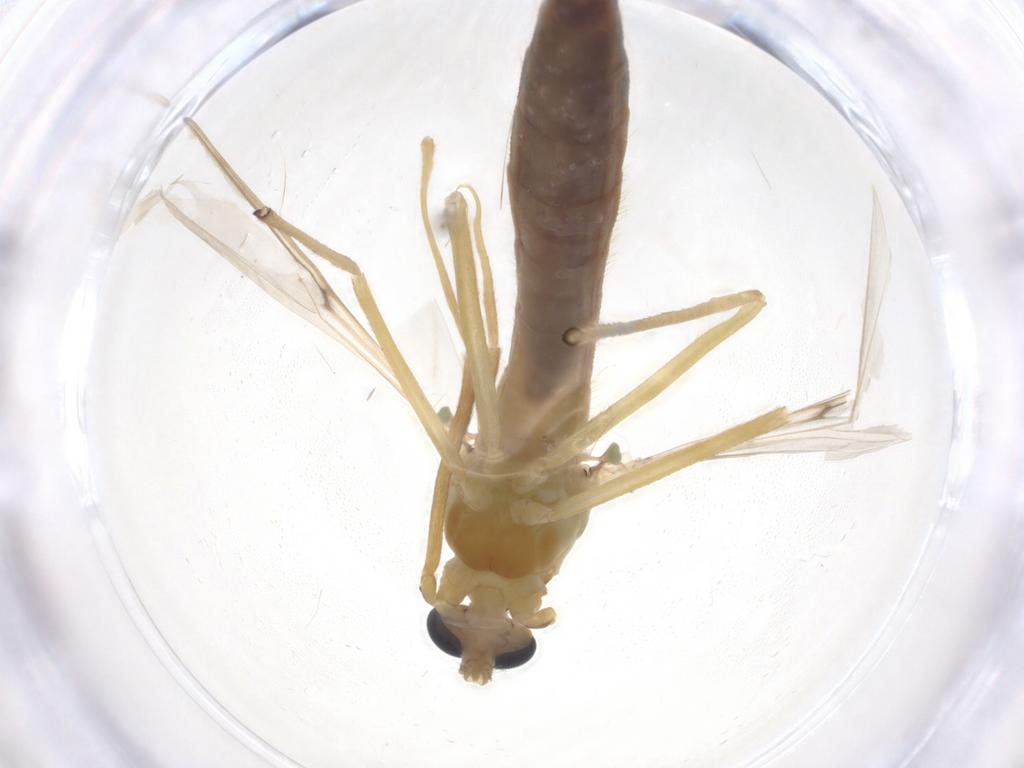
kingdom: Animalia
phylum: Arthropoda
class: Insecta
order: Diptera
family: Chironomidae
